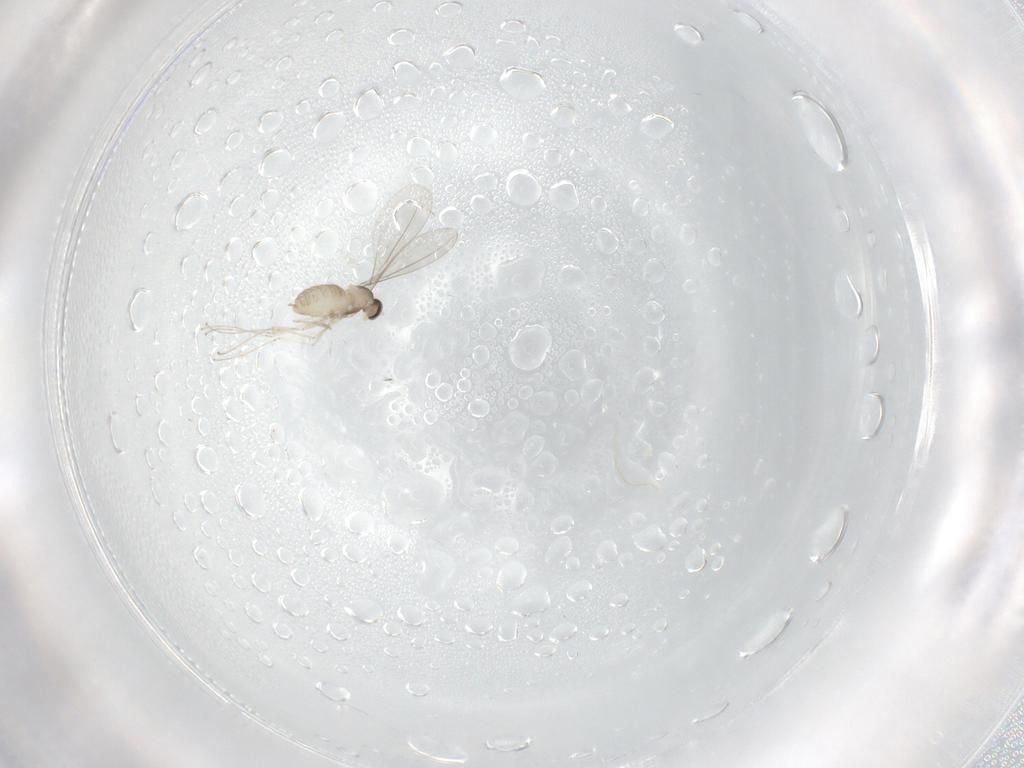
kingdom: Animalia
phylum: Arthropoda
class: Insecta
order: Diptera
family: Cecidomyiidae
